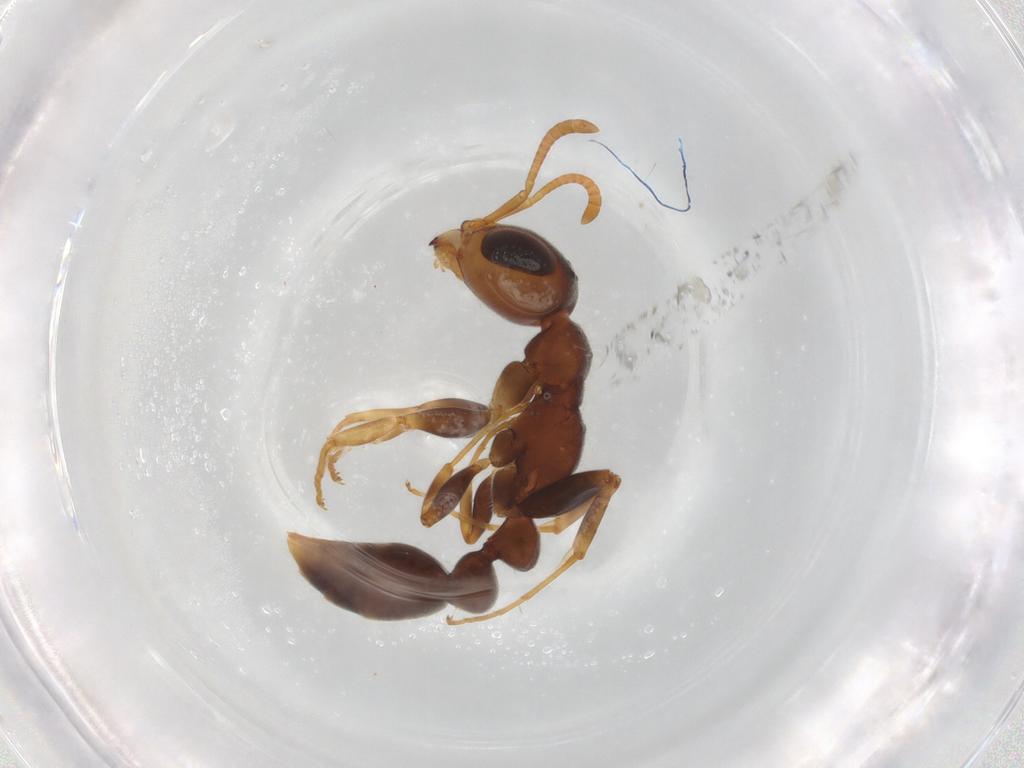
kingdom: Animalia
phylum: Arthropoda
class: Insecta
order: Hymenoptera
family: Formicidae
